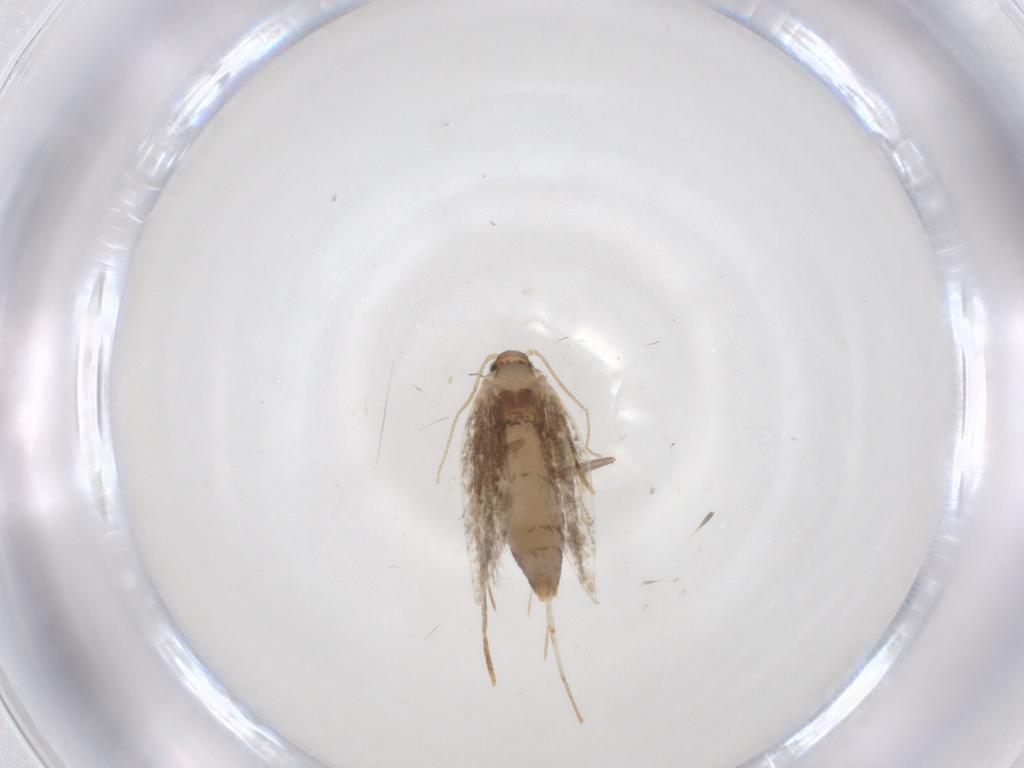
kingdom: Animalia
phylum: Arthropoda
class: Insecta
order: Lepidoptera
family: Tineidae
